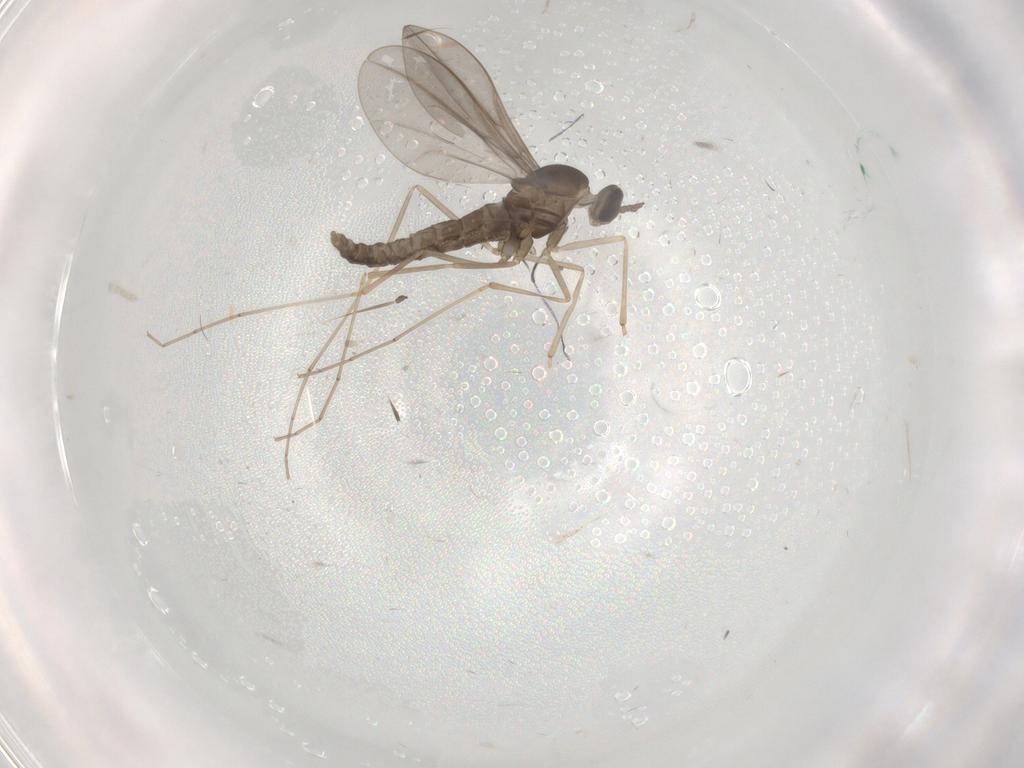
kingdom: Animalia
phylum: Arthropoda
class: Insecta
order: Diptera
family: Cecidomyiidae
